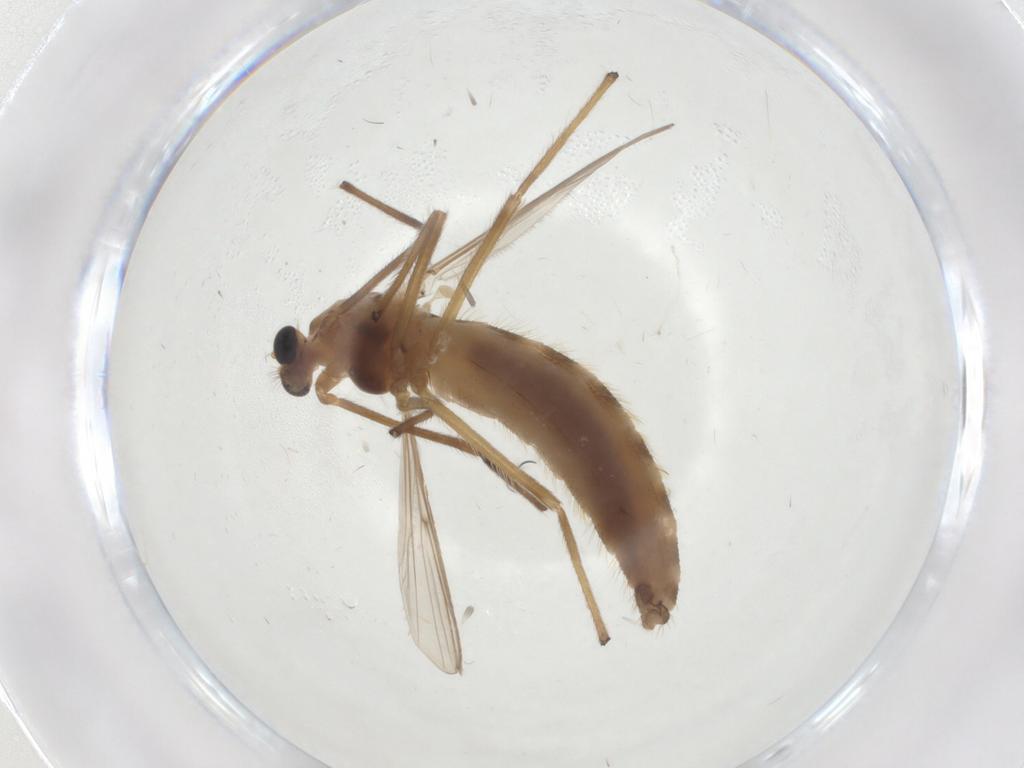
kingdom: Animalia
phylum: Arthropoda
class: Insecta
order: Diptera
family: Chironomidae
